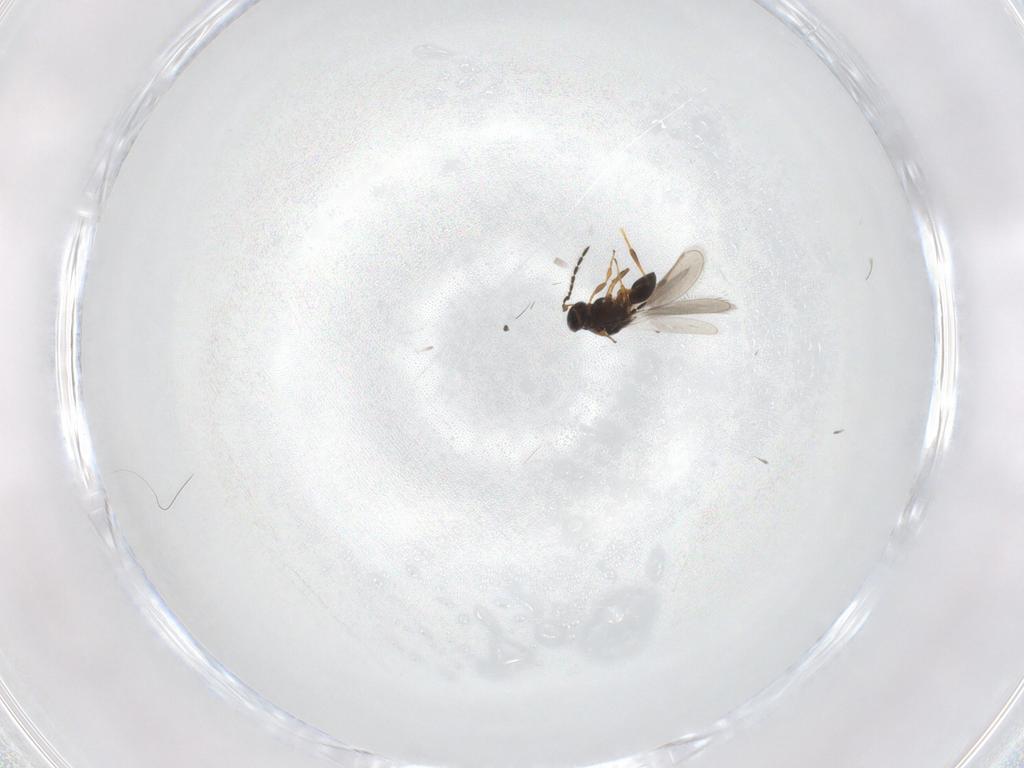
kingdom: Animalia
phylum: Arthropoda
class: Insecta
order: Hymenoptera
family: Platygastridae
